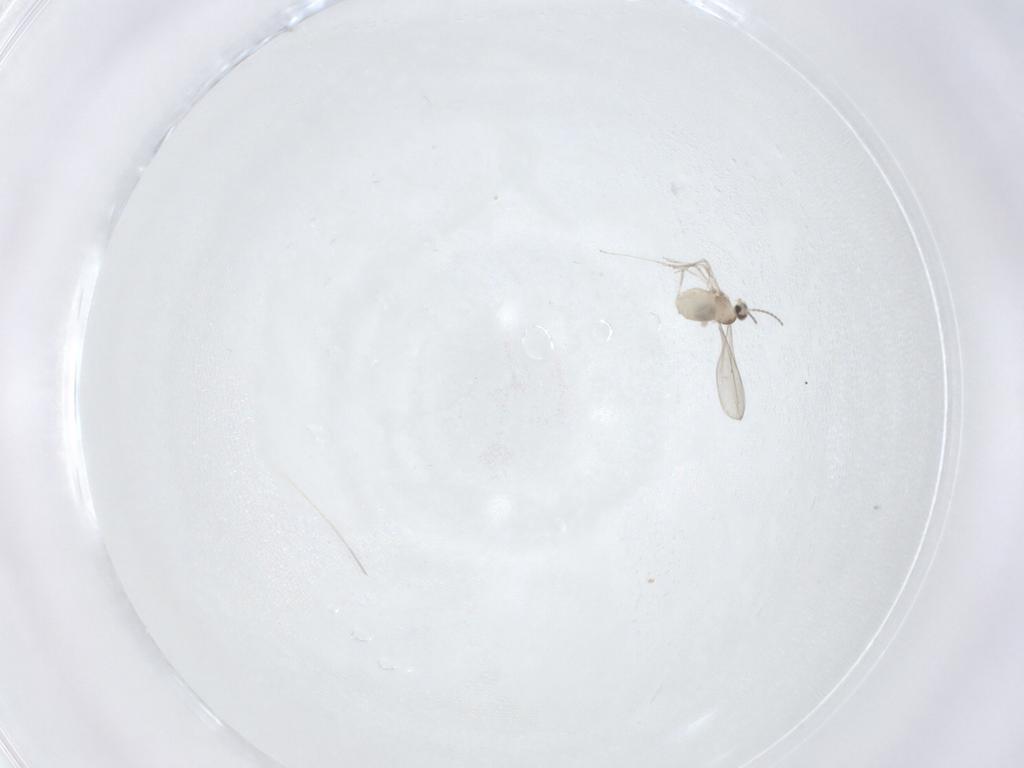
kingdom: Animalia
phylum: Arthropoda
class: Insecta
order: Diptera
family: Cecidomyiidae
